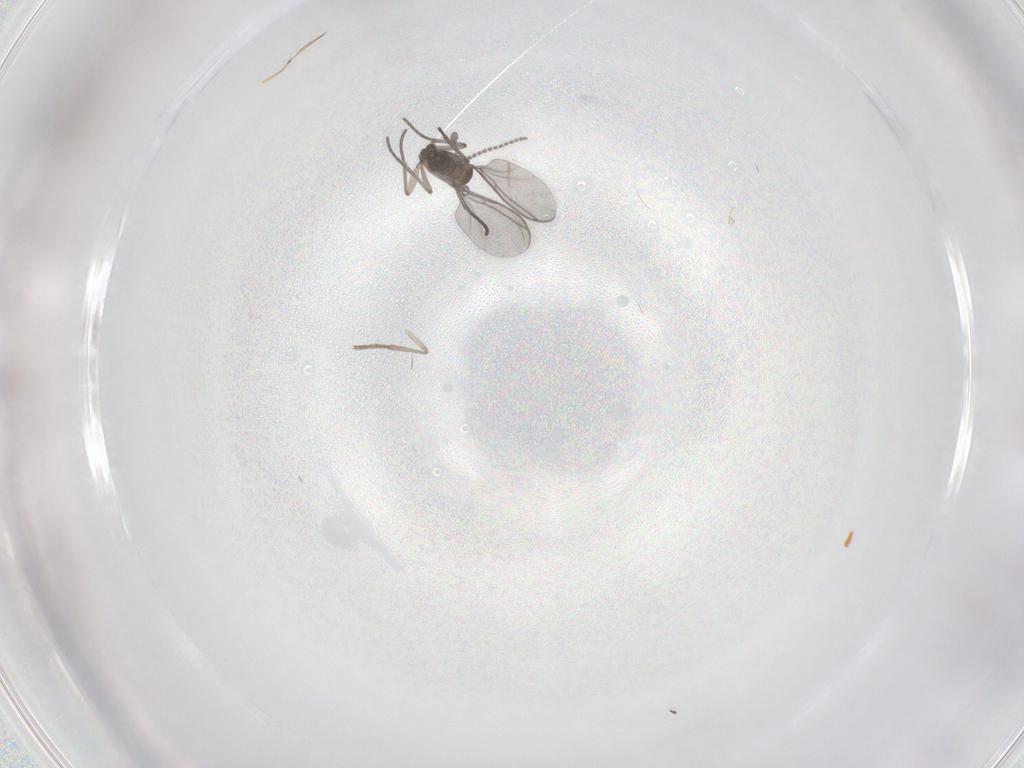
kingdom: Animalia
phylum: Arthropoda
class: Insecta
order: Diptera
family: Sciaridae
